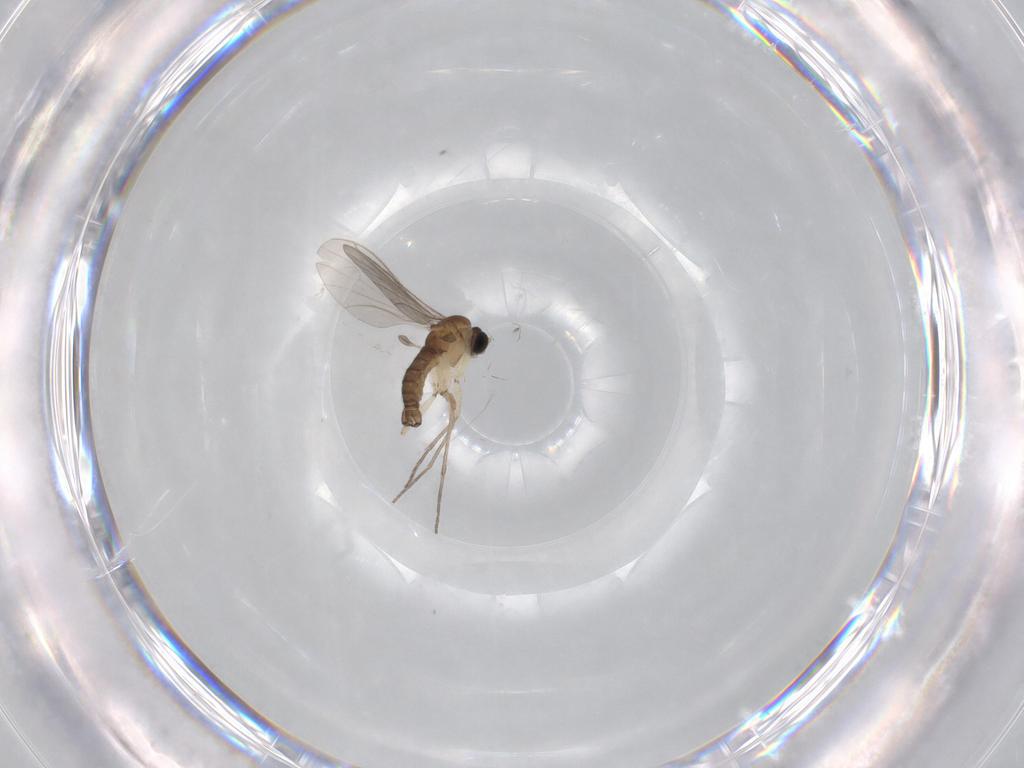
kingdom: Animalia
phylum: Arthropoda
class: Insecta
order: Diptera
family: Sciaridae
